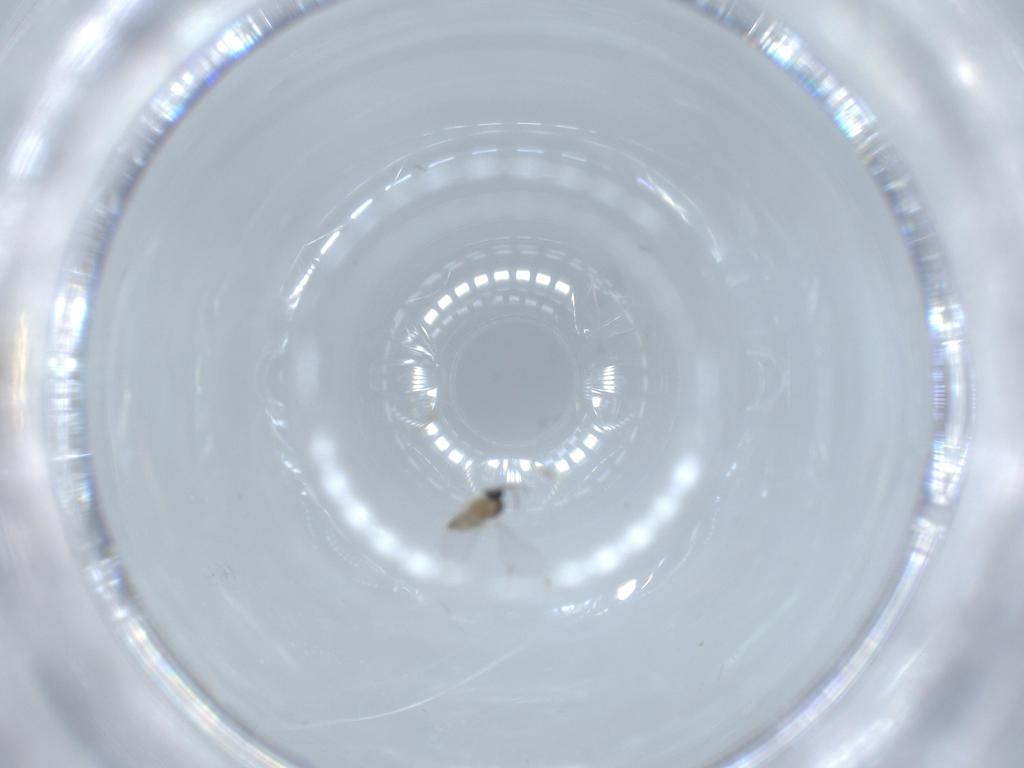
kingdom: Animalia
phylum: Arthropoda
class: Insecta
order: Diptera
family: Cecidomyiidae
